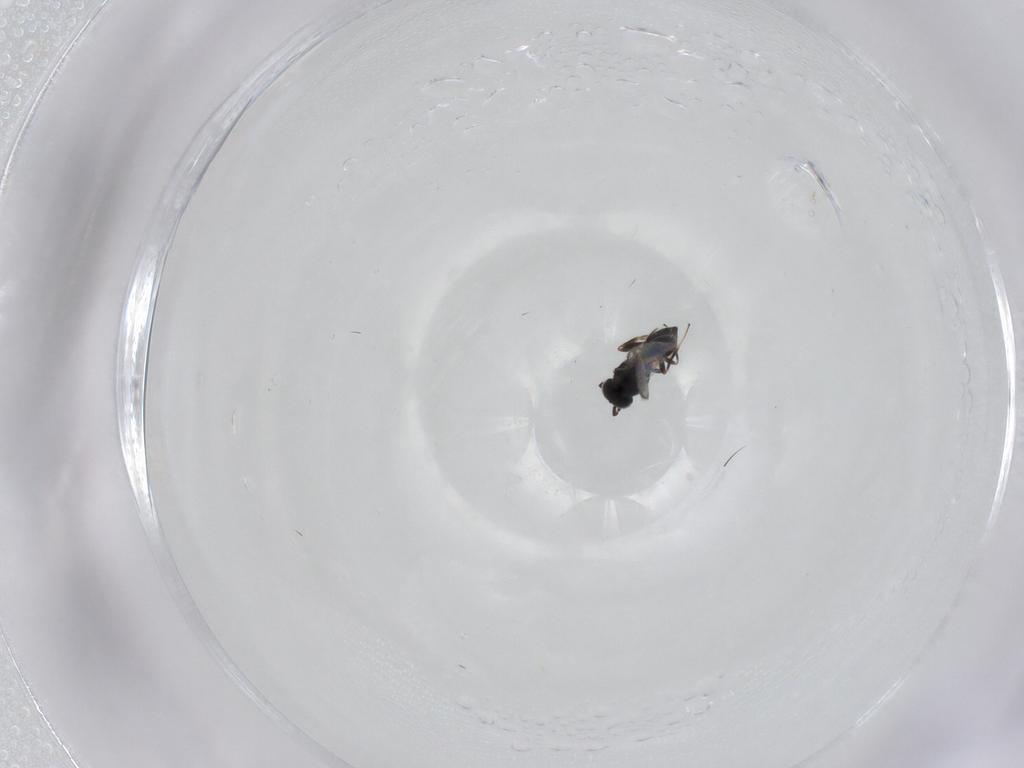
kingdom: Animalia
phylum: Arthropoda
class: Insecta
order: Hymenoptera
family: Scelionidae
